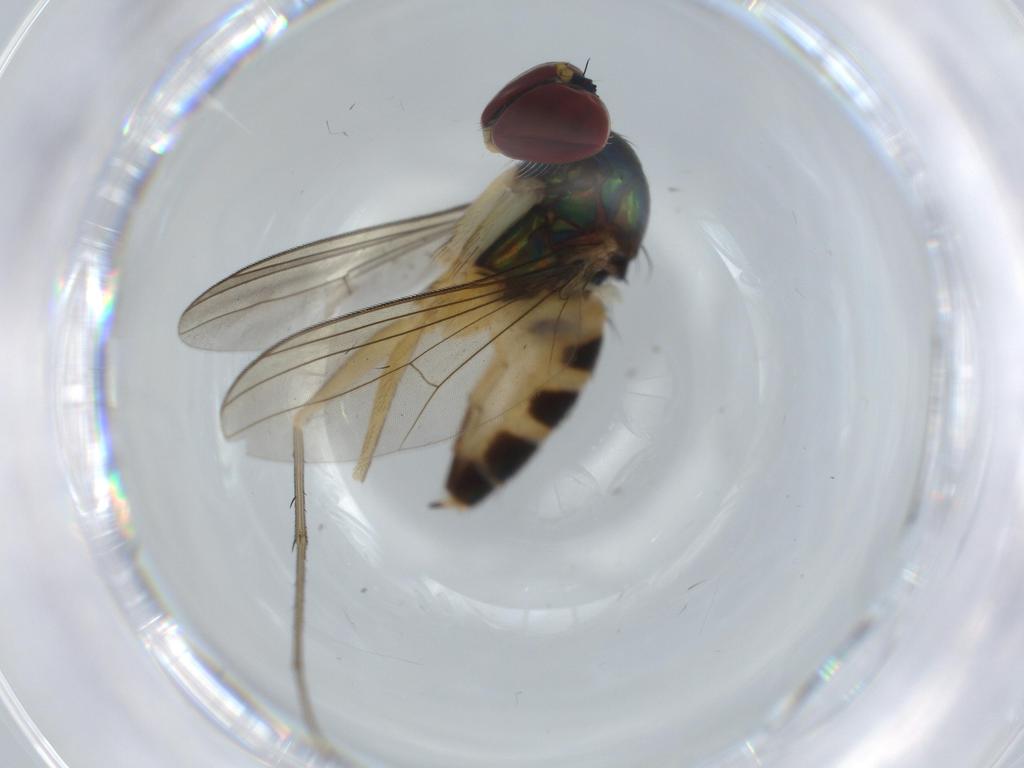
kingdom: Animalia
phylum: Arthropoda
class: Insecta
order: Diptera
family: Dolichopodidae
